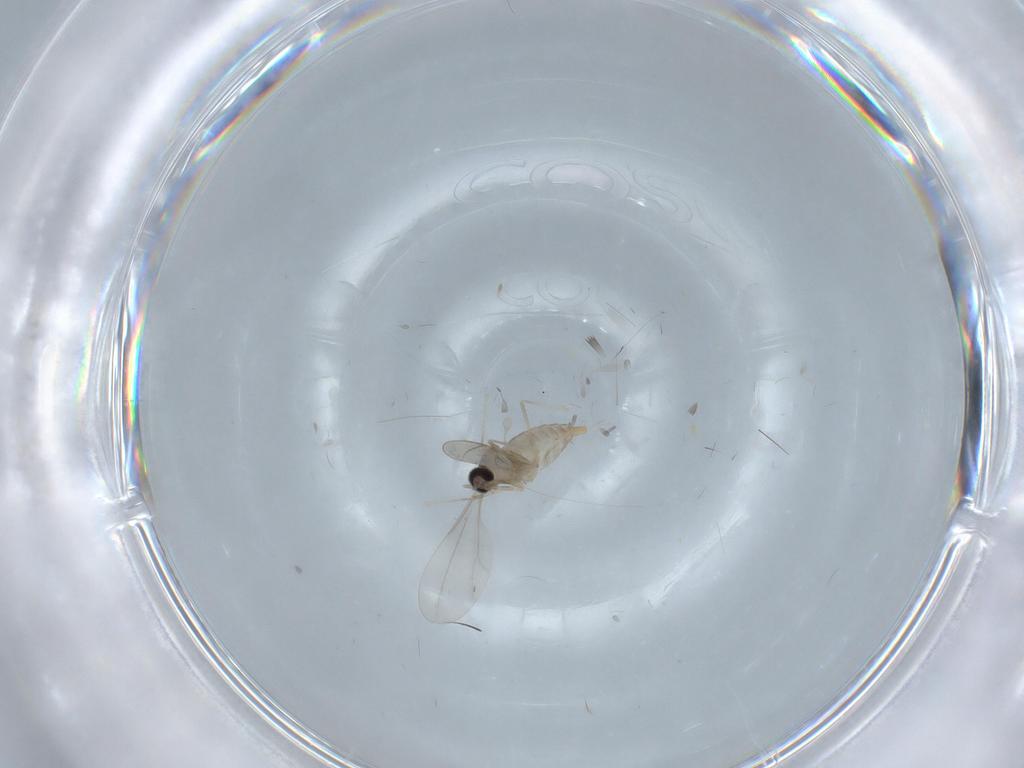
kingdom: Animalia
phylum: Arthropoda
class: Insecta
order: Diptera
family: Cecidomyiidae
